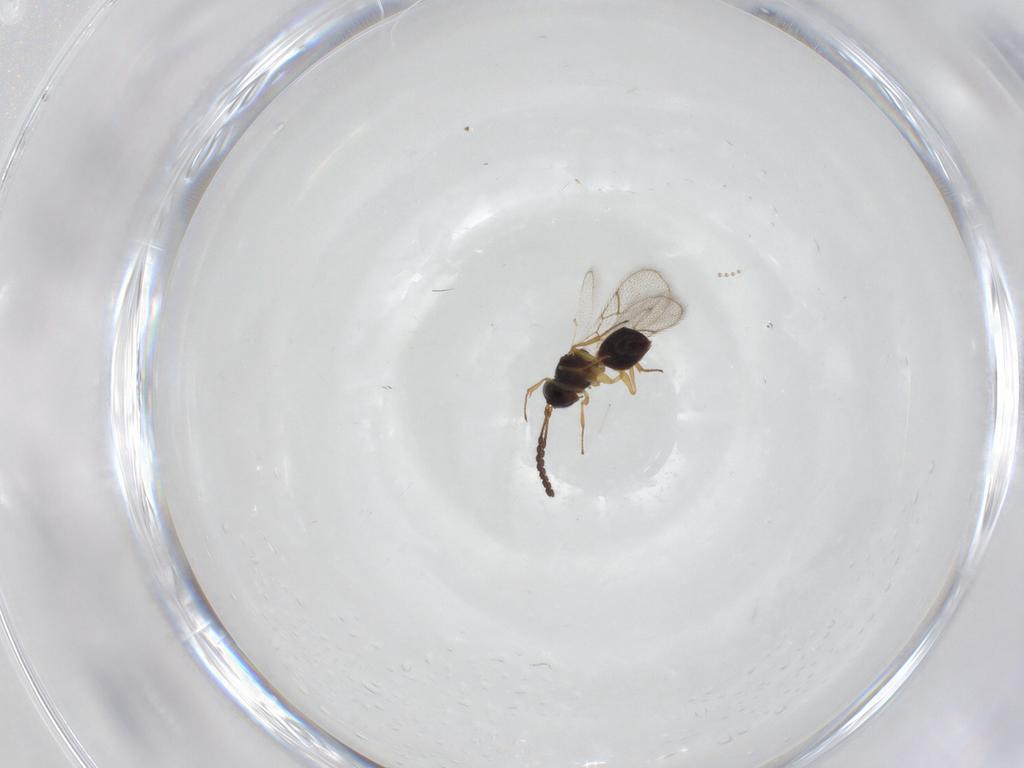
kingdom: Animalia
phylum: Arthropoda
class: Insecta
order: Hymenoptera
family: Figitidae
